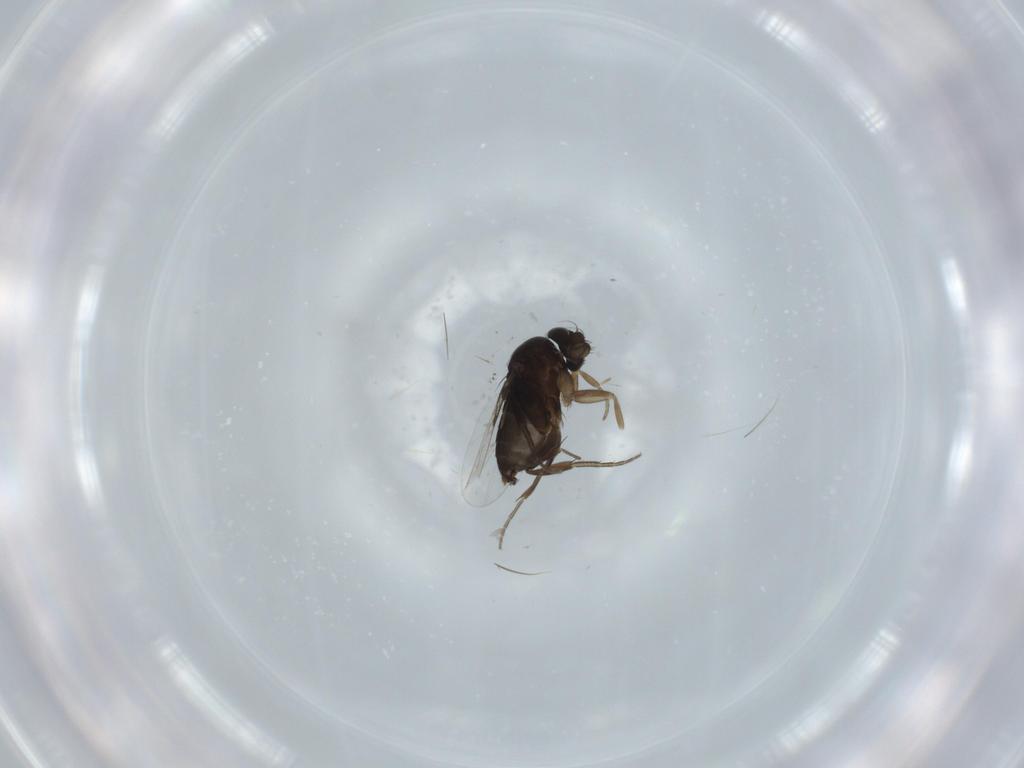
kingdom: Animalia
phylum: Arthropoda
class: Insecta
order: Diptera
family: Phoridae
